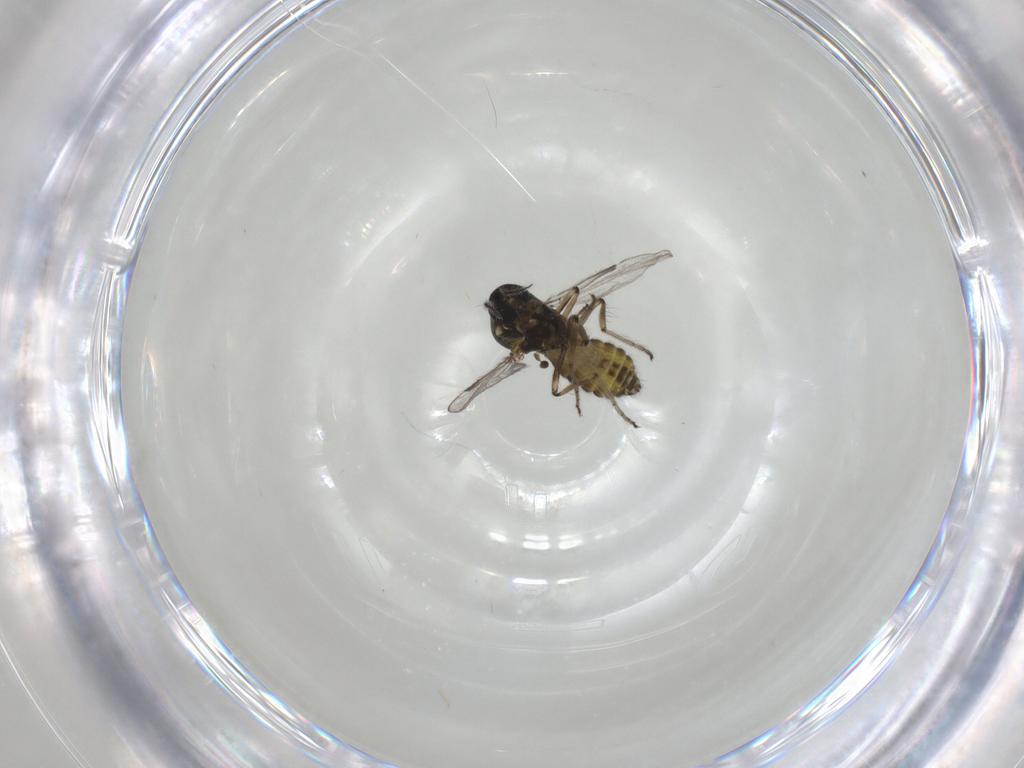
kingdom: Animalia
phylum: Arthropoda
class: Insecta
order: Diptera
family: Ceratopogonidae
